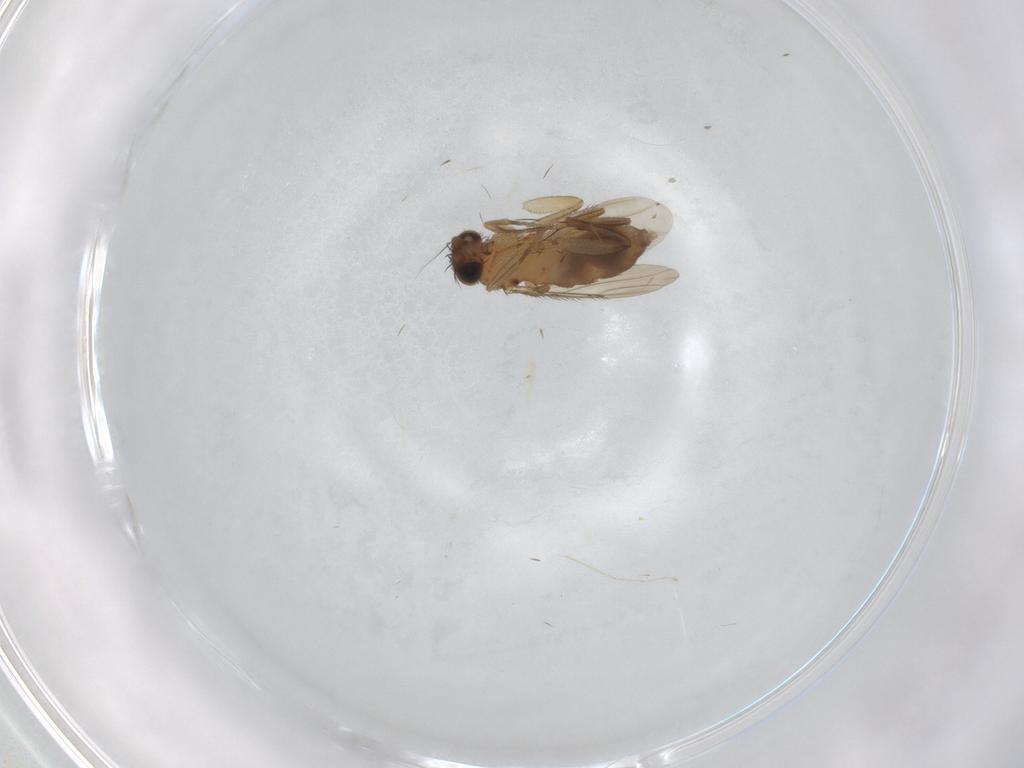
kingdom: Animalia
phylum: Arthropoda
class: Insecta
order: Diptera
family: Phoridae
